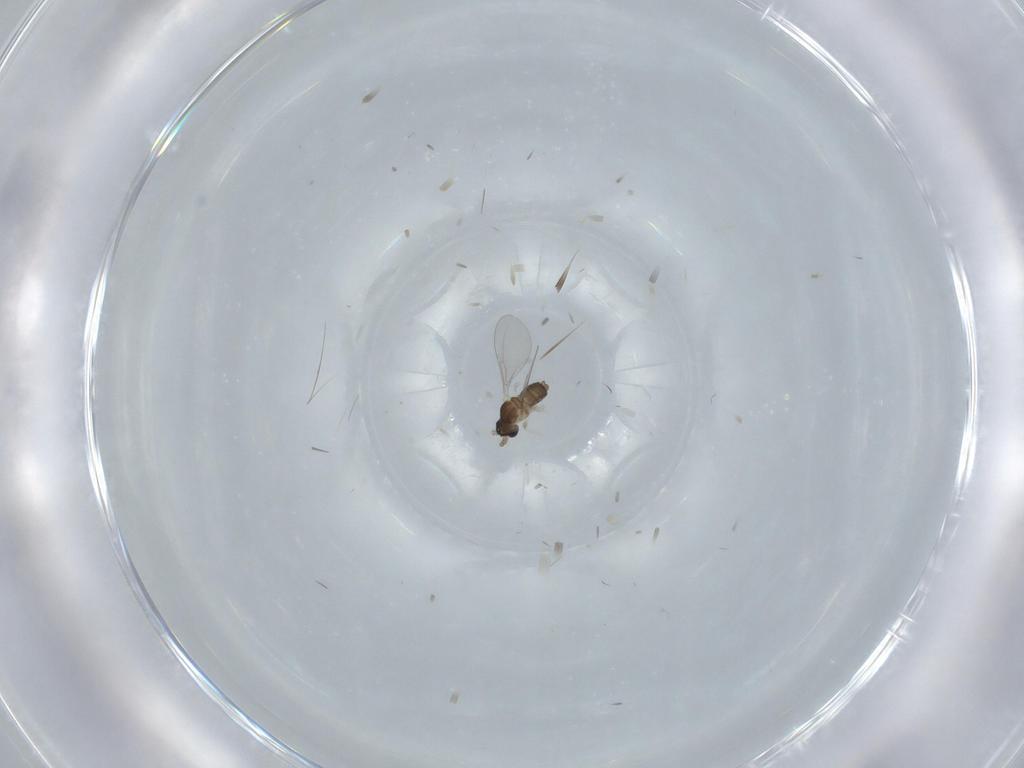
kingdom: Animalia
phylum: Arthropoda
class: Insecta
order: Diptera
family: Cecidomyiidae
